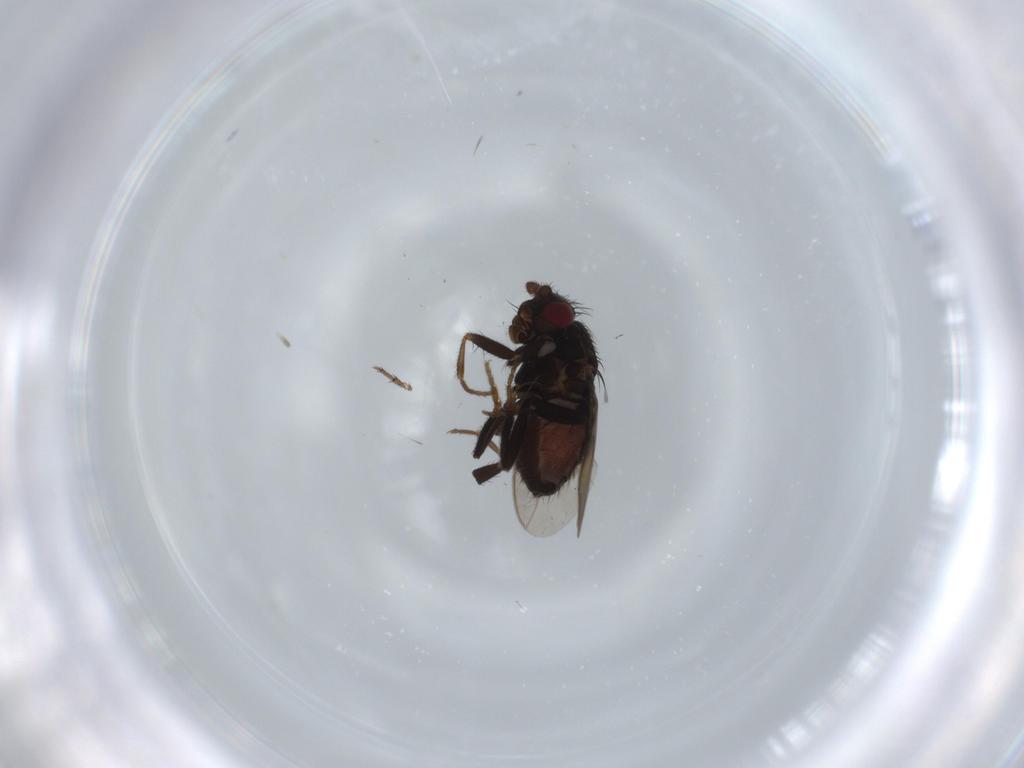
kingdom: Animalia
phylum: Arthropoda
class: Insecta
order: Diptera
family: Sphaeroceridae
